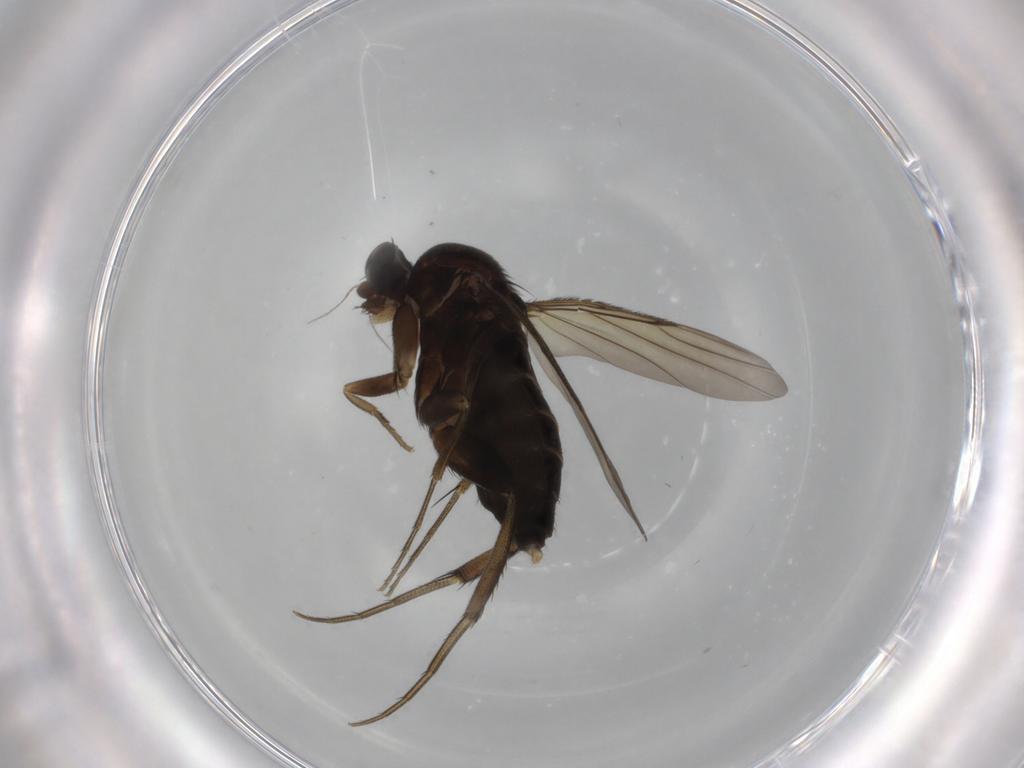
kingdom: Animalia
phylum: Arthropoda
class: Insecta
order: Diptera
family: Phoridae
